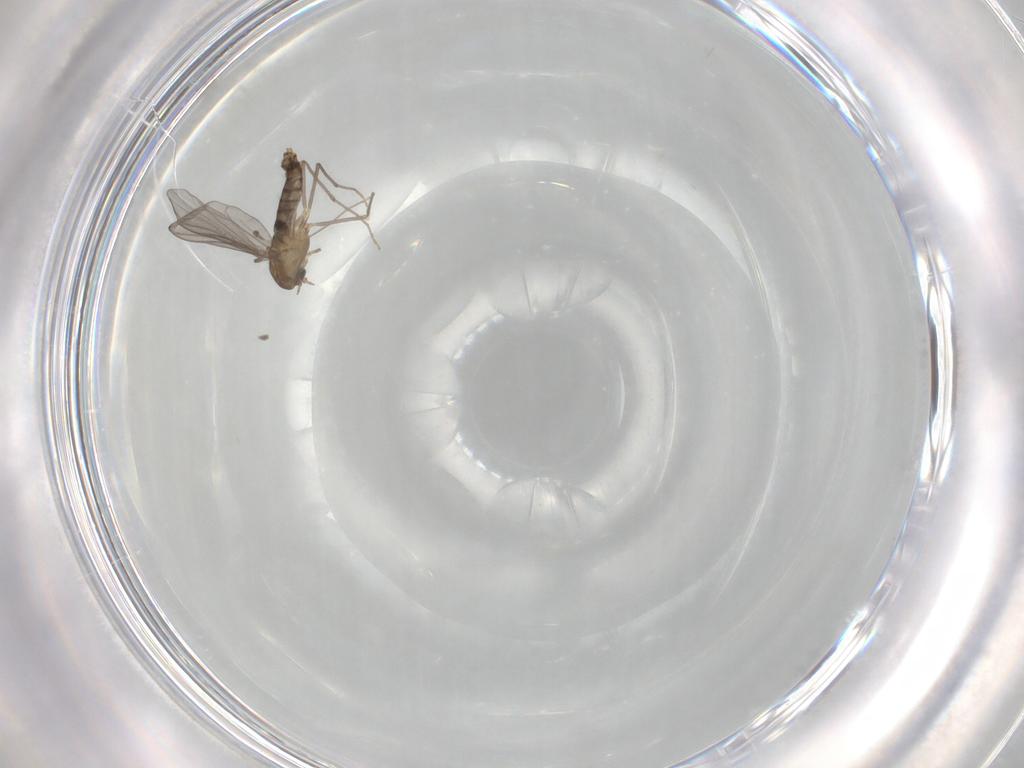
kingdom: Animalia
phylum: Arthropoda
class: Insecta
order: Diptera
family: Chironomidae
